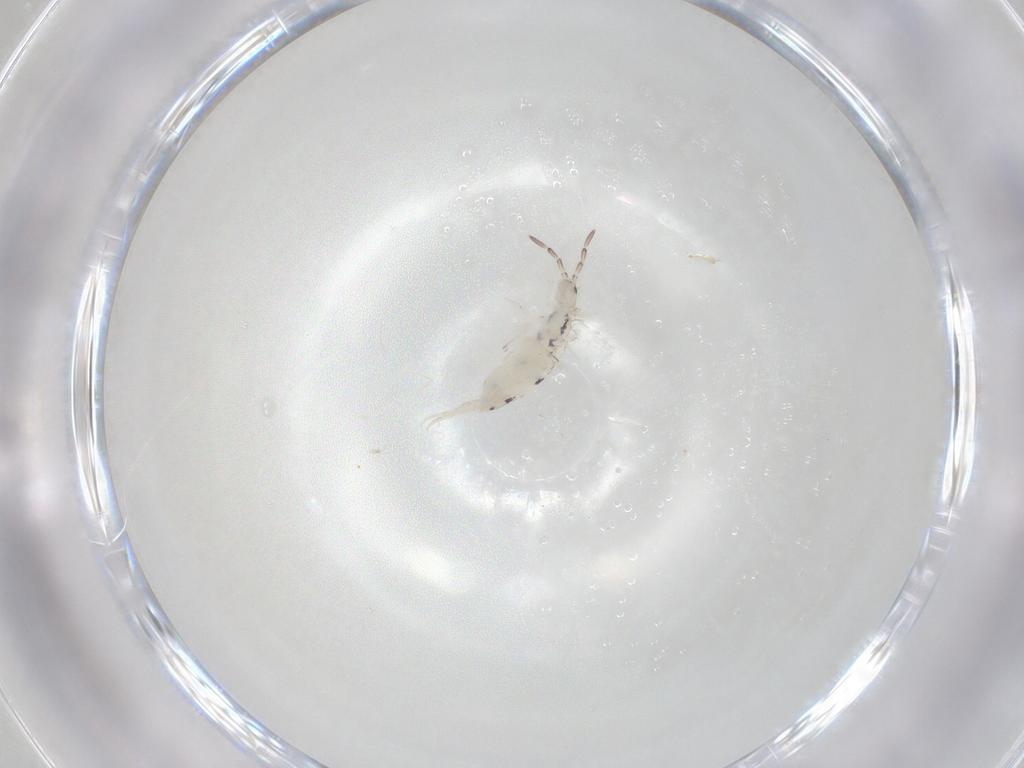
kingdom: Animalia
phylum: Arthropoda
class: Collembola
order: Entomobryomorpha
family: Entomobryidae
